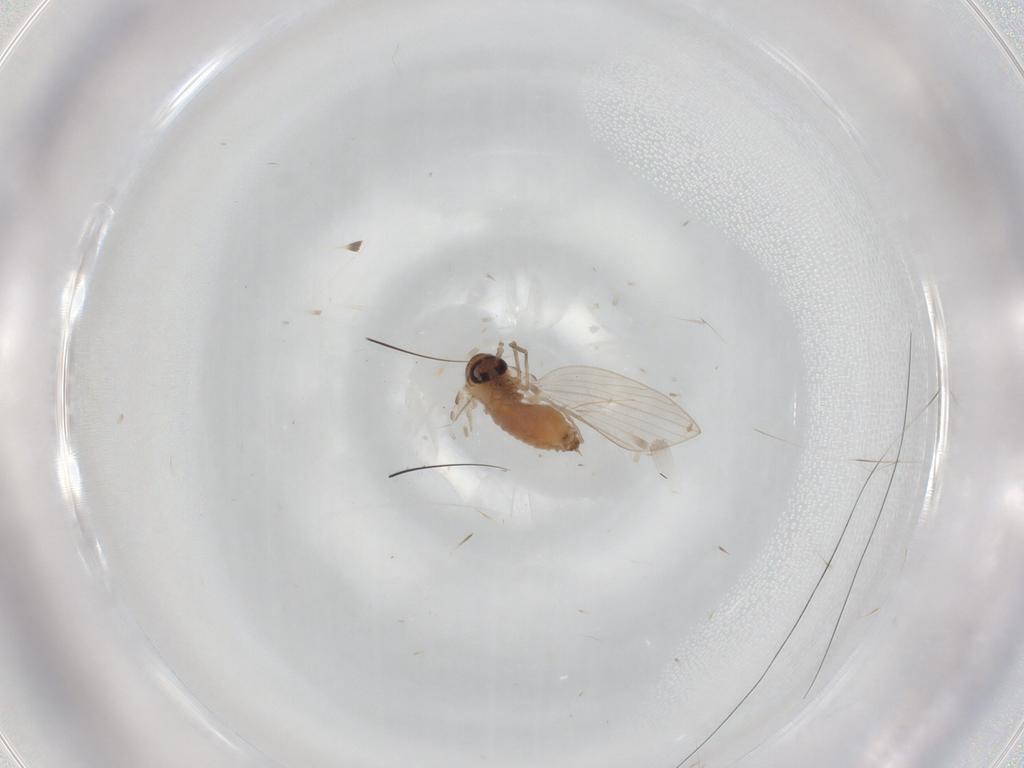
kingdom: Animalia
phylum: Arthropoda
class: Insecta
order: Diptera
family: Psychodidae
